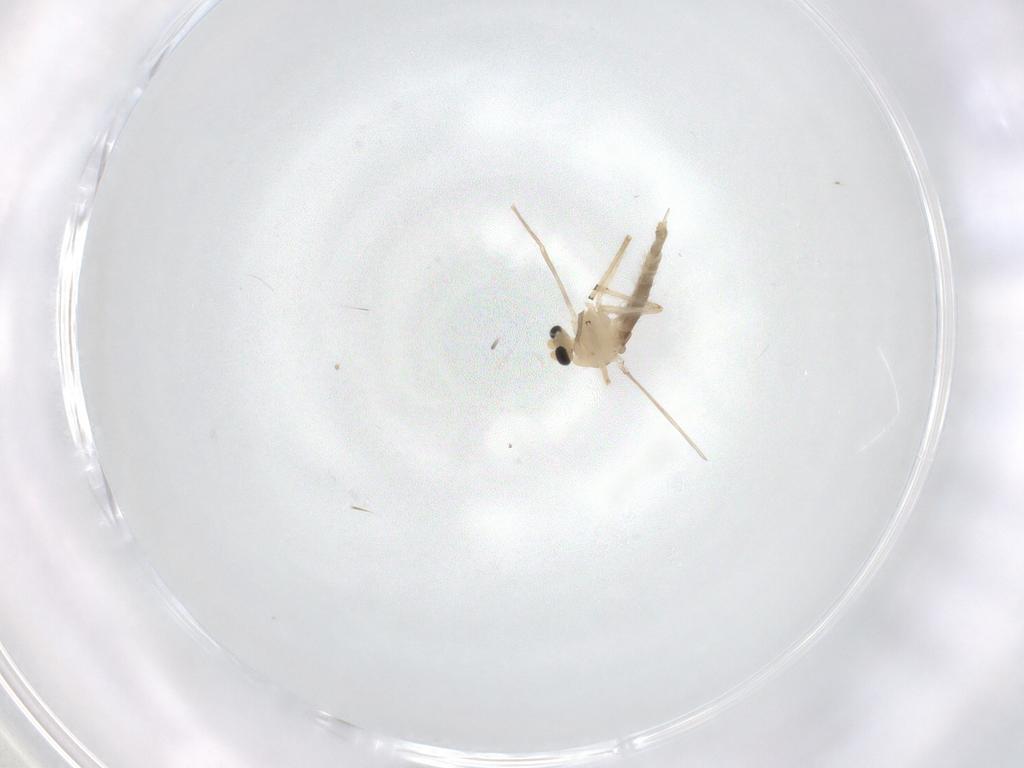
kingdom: Animalia
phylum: Arthropoda
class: Insecta
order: Diptera
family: Chironomidae
